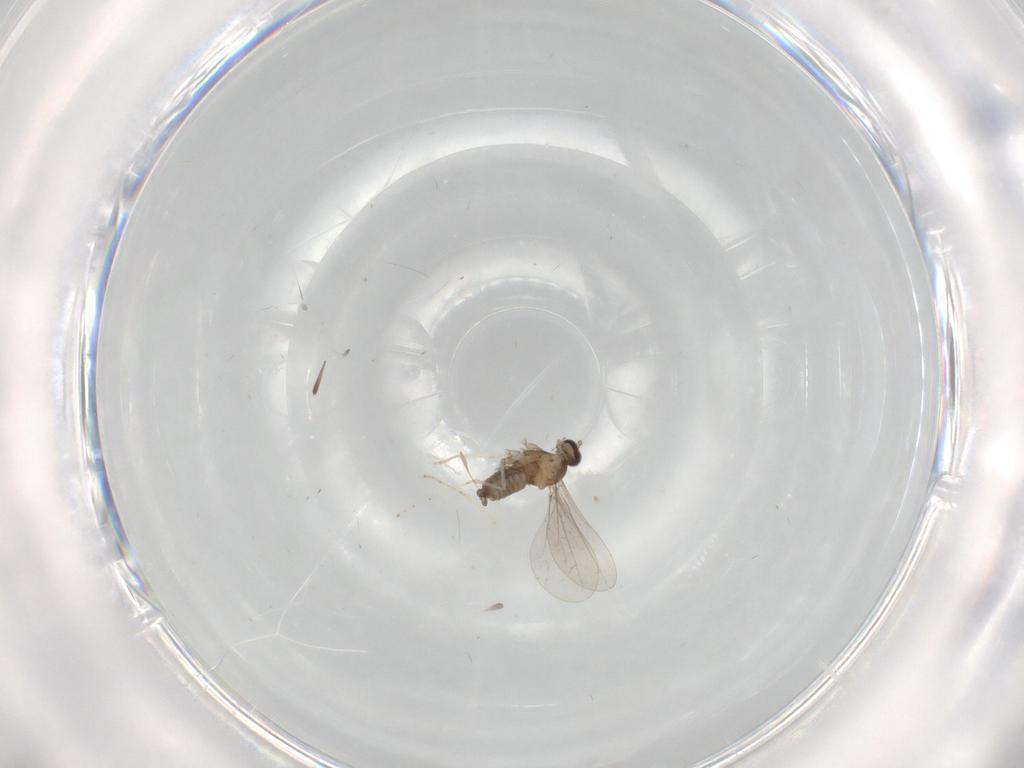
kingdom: Animalia
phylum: Arthropoda
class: Insecta
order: Diptera
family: Cecidomyiidae
